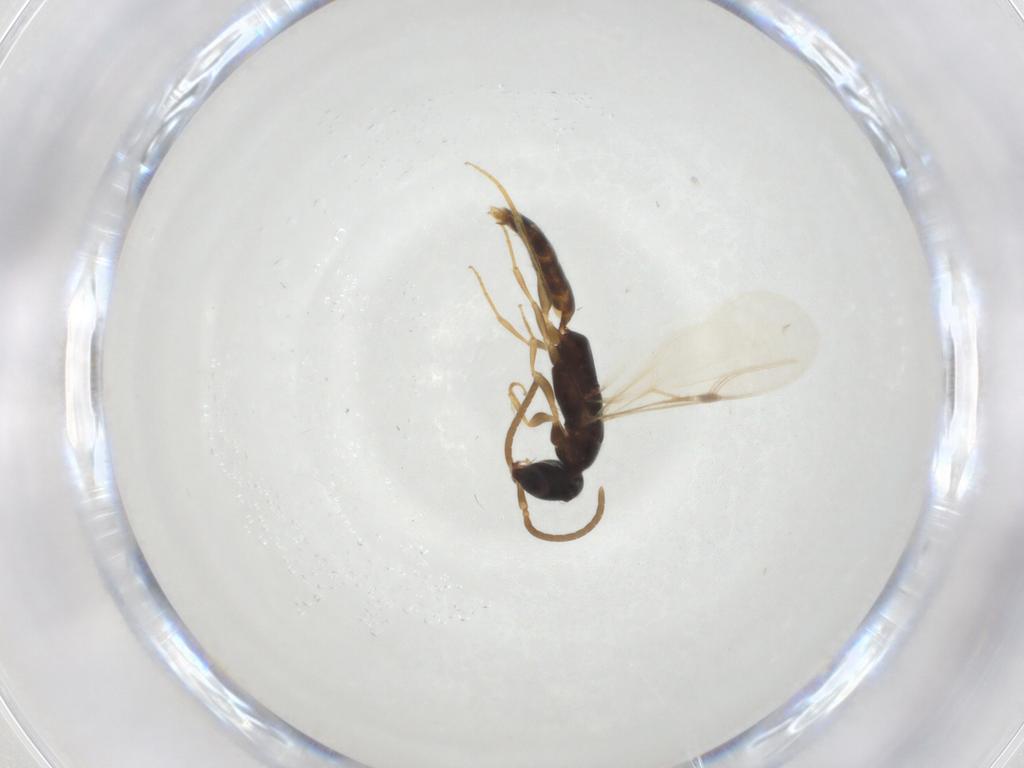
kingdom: Animalia
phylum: Arthropoda
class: Insecta
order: Hymenoptera
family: Bethylidae
